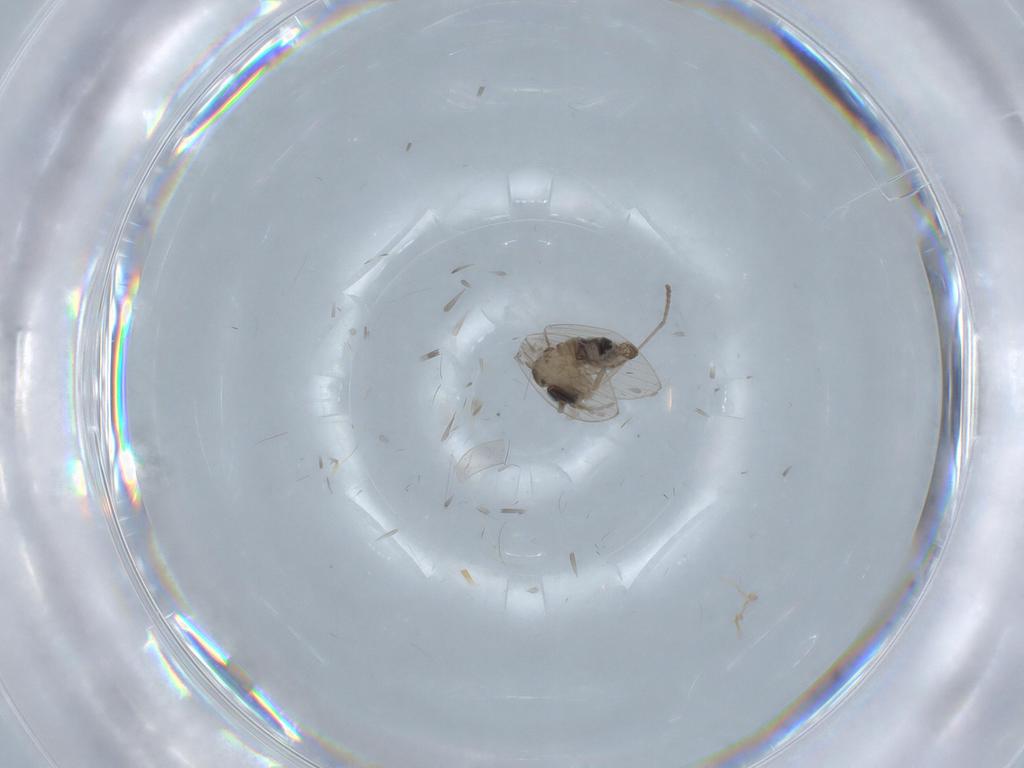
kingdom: Animalia
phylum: Arthropoda
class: Insecta
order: Diptera
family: Psychodidae
